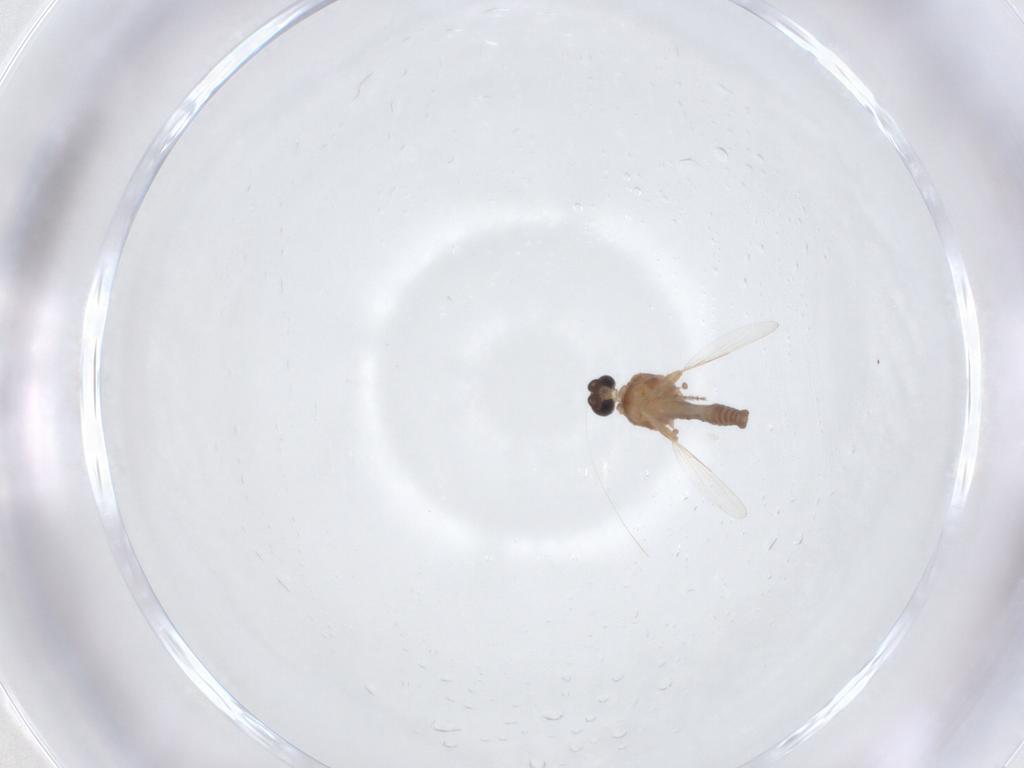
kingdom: Animalia
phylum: Arthropoda
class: Insecta
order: Diptera
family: Ceratopogonidae
